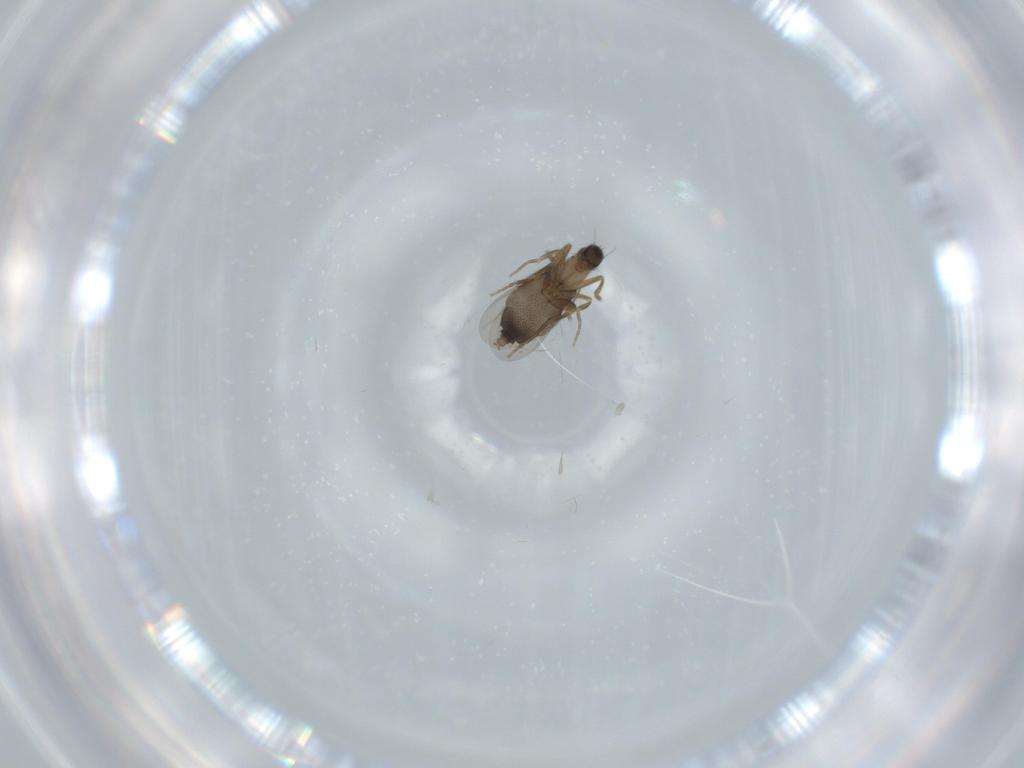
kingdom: Animalia
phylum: Arthropoda
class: Insecta
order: Diptera
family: Phoridae
